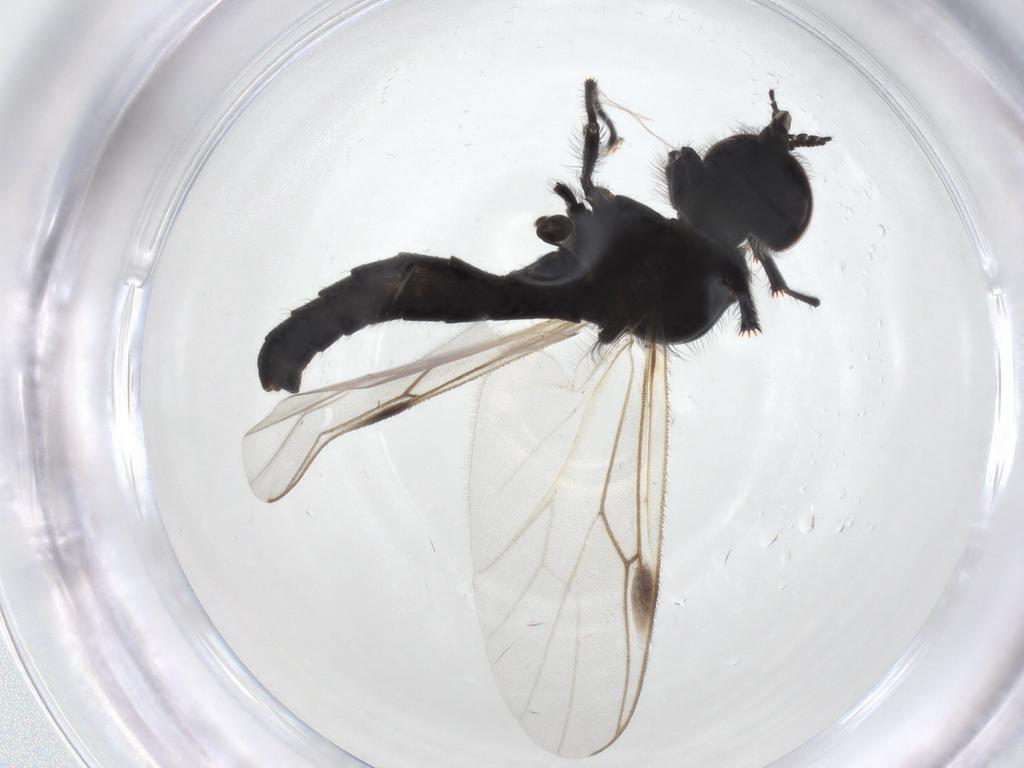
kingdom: Animalia
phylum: Arthropoda
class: Insecta
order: Diptera
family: Bibionidae
